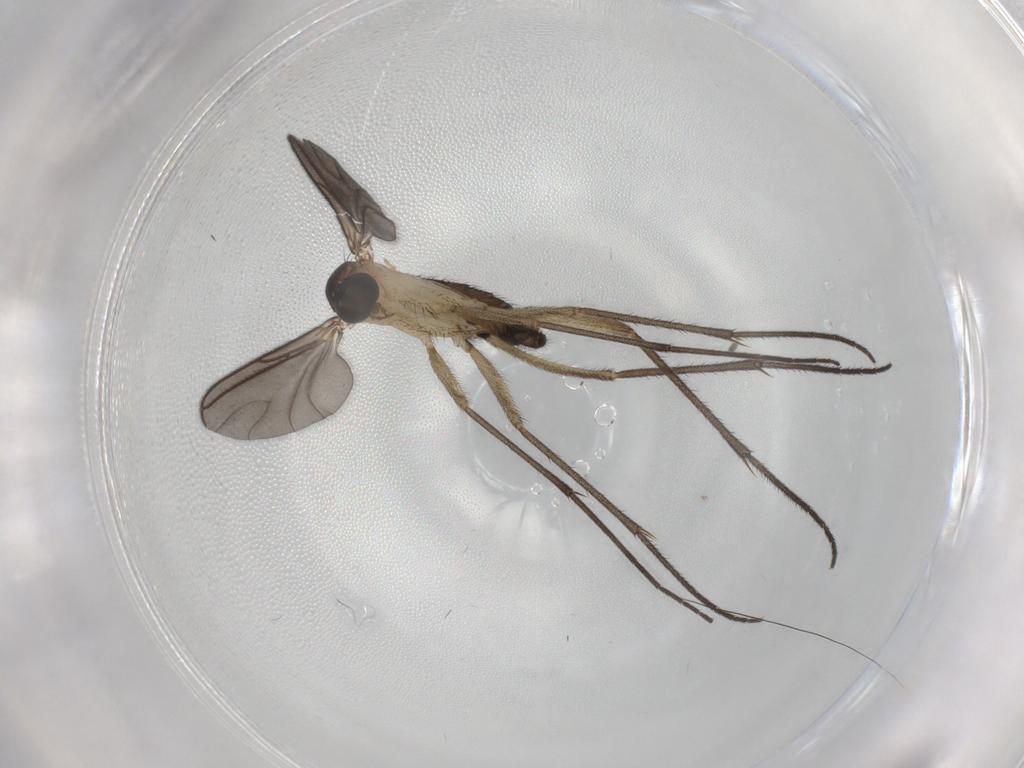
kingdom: Animalia
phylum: Arthropoda
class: Insecta
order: Diptera
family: Sciaridae
